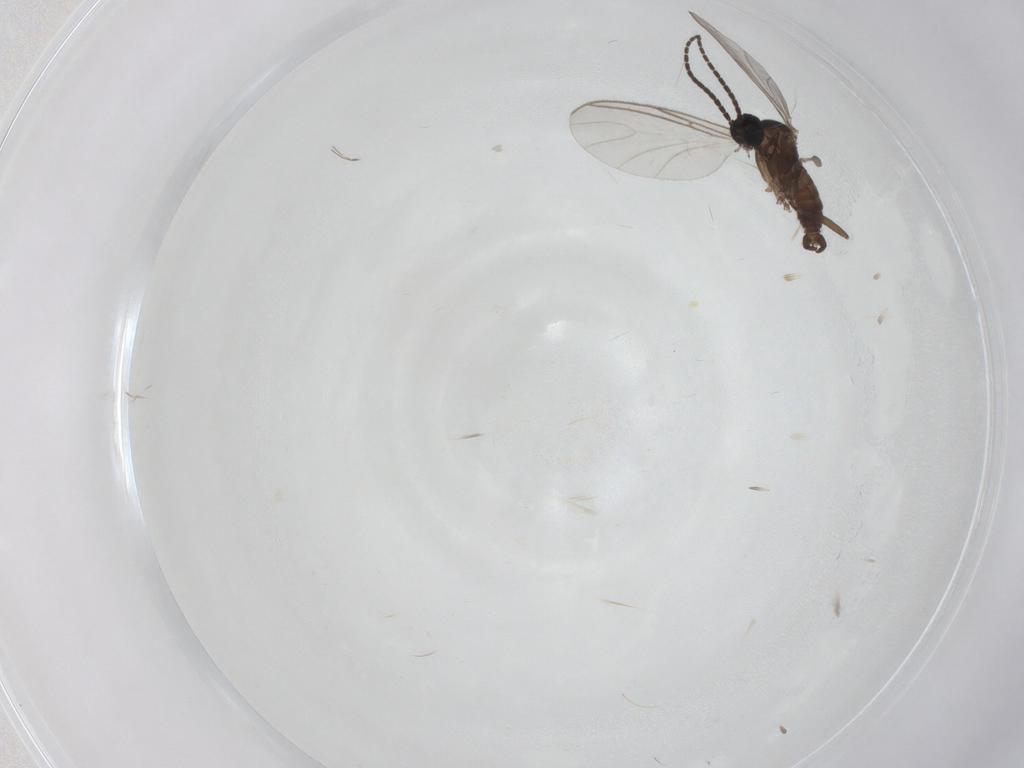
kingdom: Animalia
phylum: Arthropoda
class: Insecta
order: Diptera
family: Sciaridae
